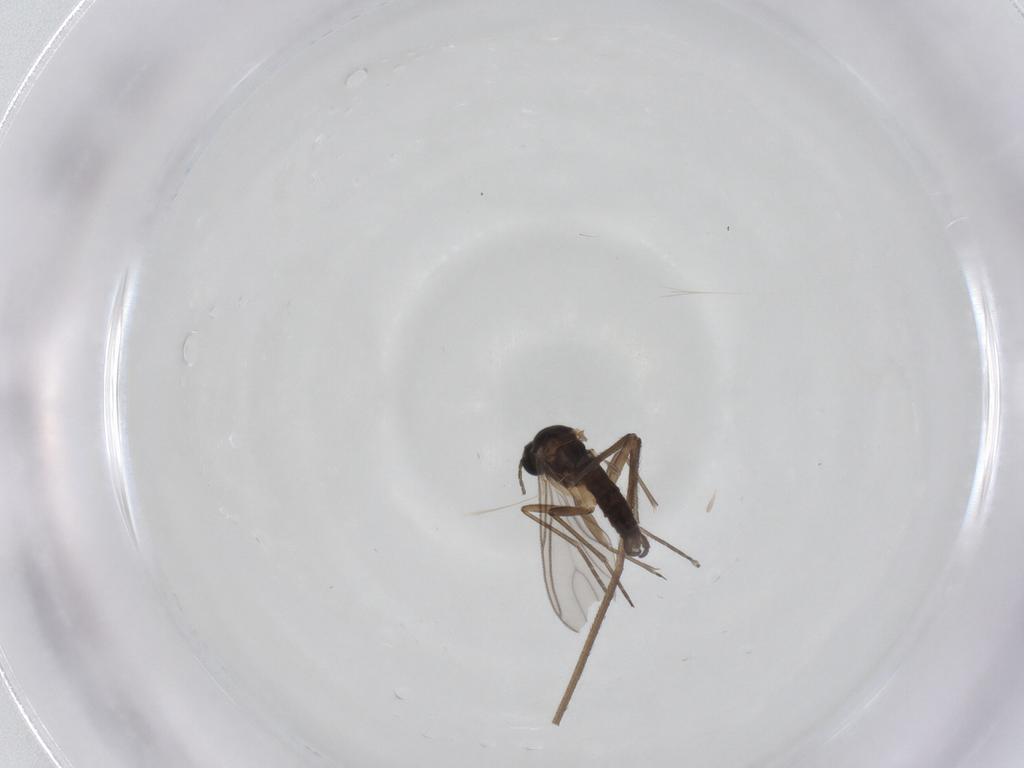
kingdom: Animalia
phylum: Arthropoda
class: Insecta
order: Diptera
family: Sciaridae
